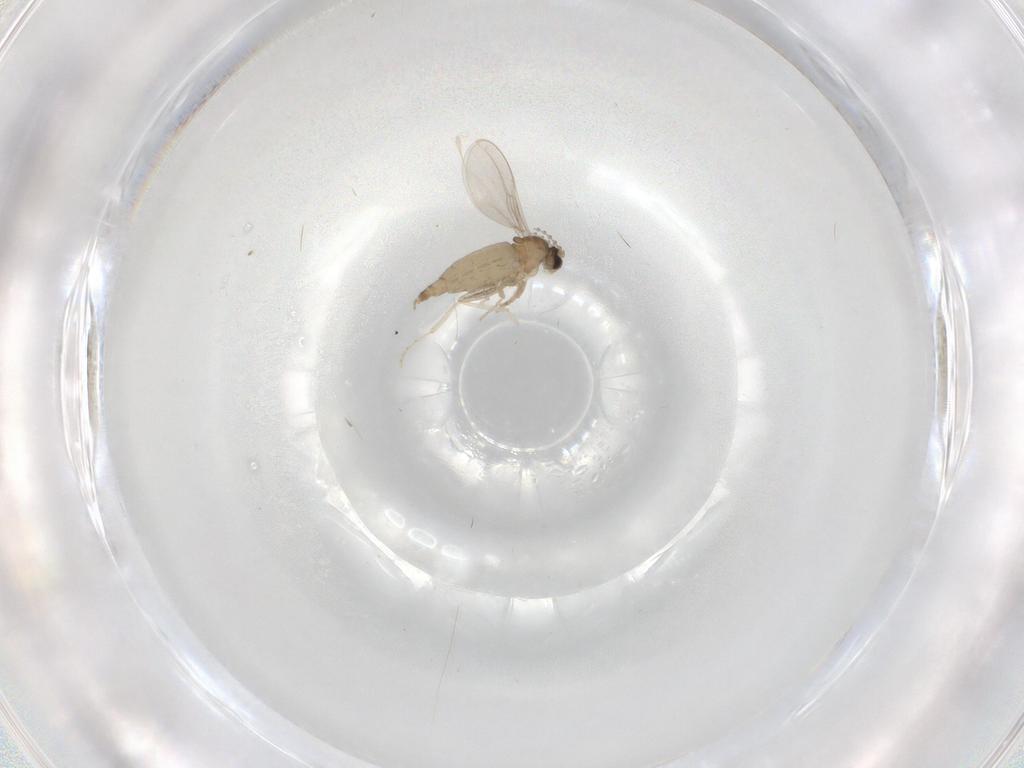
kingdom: Animalia
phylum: Arthropoda
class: Insecta
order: Diptera
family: Cecidomyiidae
